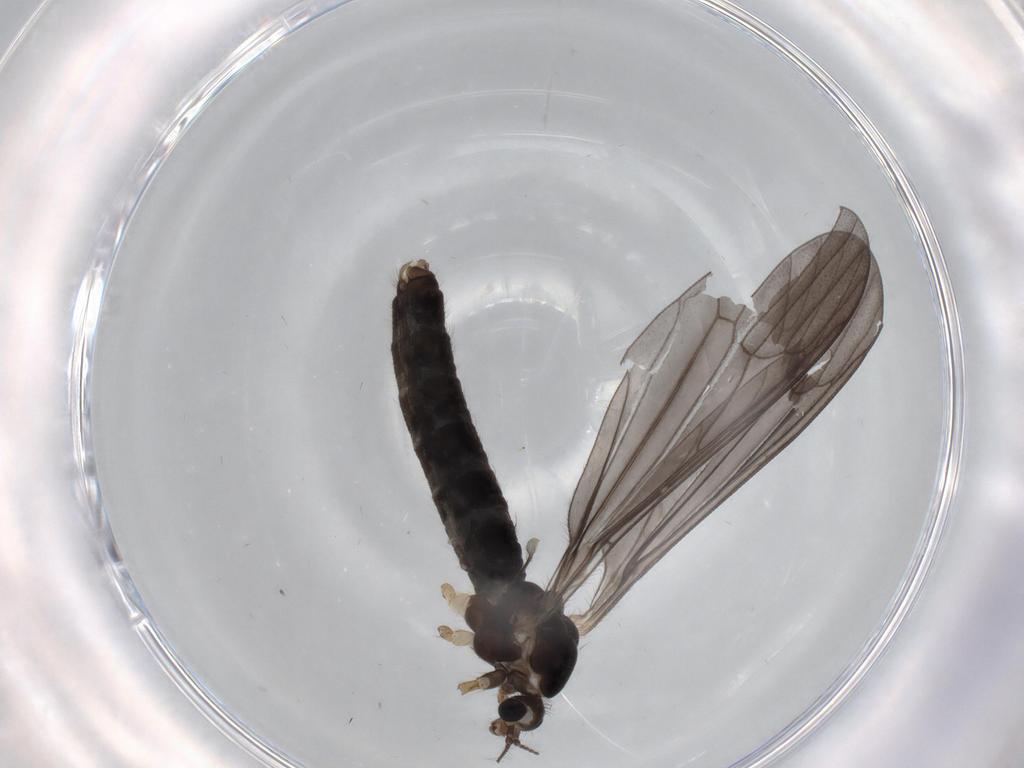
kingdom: Animalia
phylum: Arthropoda
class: Insecta
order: Diptera
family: Limoniidae
